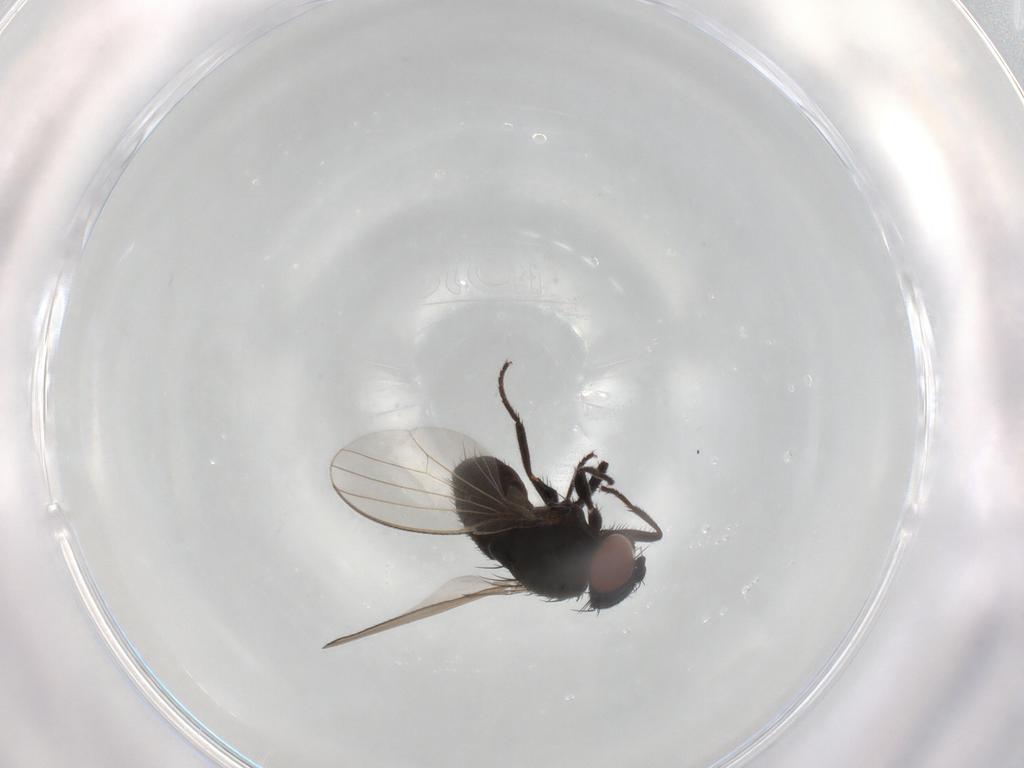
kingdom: Animalia
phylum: Arthropoda
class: Insecta
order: Diptera
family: Milichiidae
